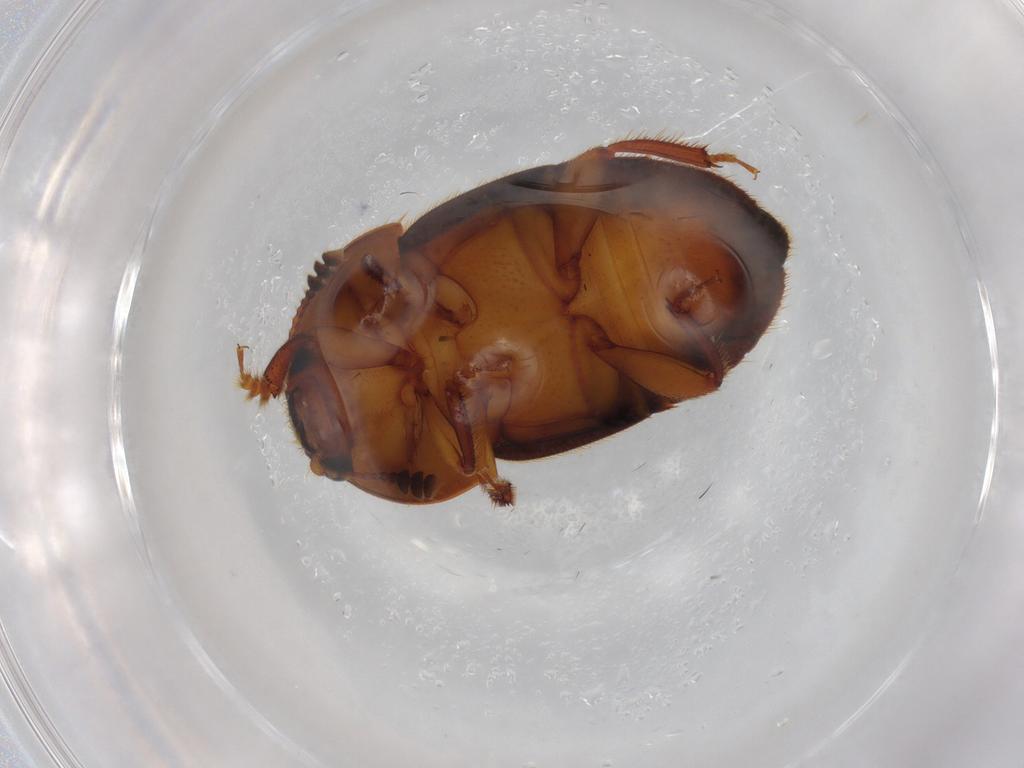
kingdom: Animalia
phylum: Arthropoda
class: Insecta
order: Coleoptera
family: Nitidulidae
